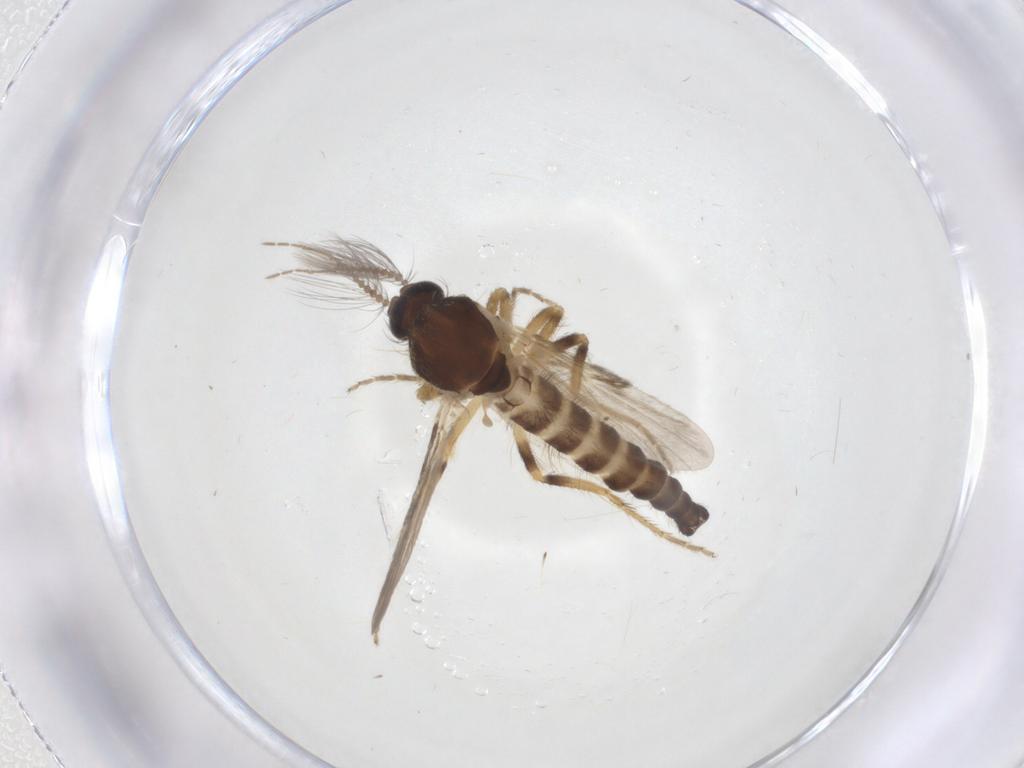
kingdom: Animalia
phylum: Arthropoda
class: Insecta
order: Diptera
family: Ceratopogonidae
